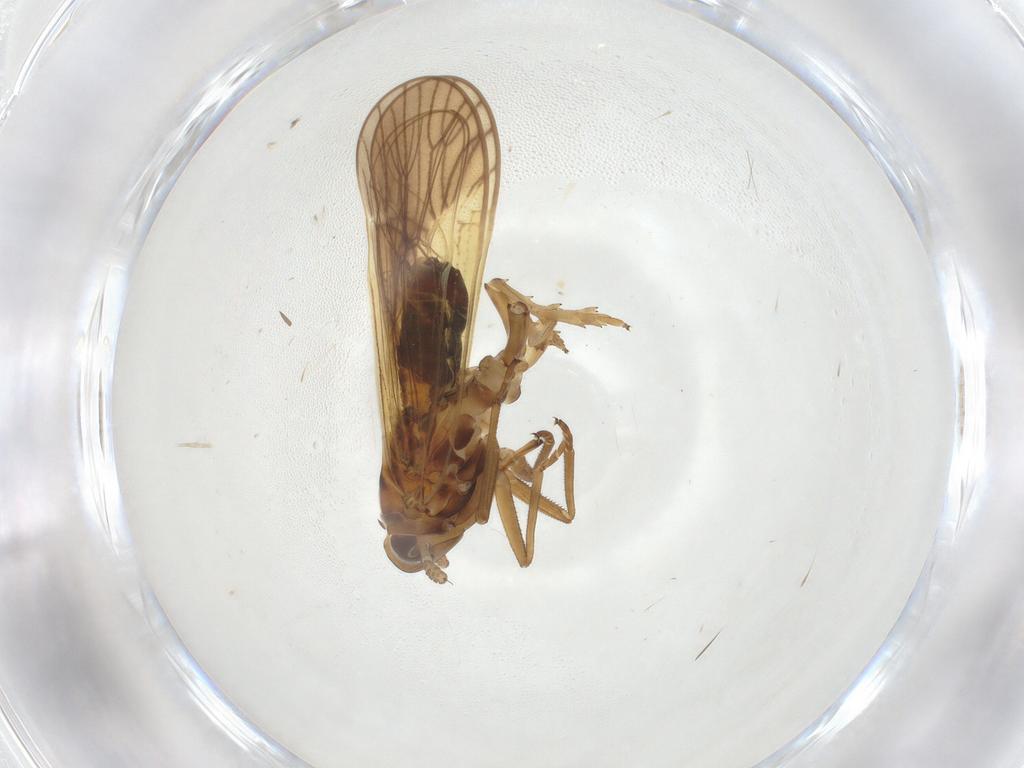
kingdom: Animalia
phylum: Arthropoda
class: Insecta
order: Hemiptera
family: Delphacidae
